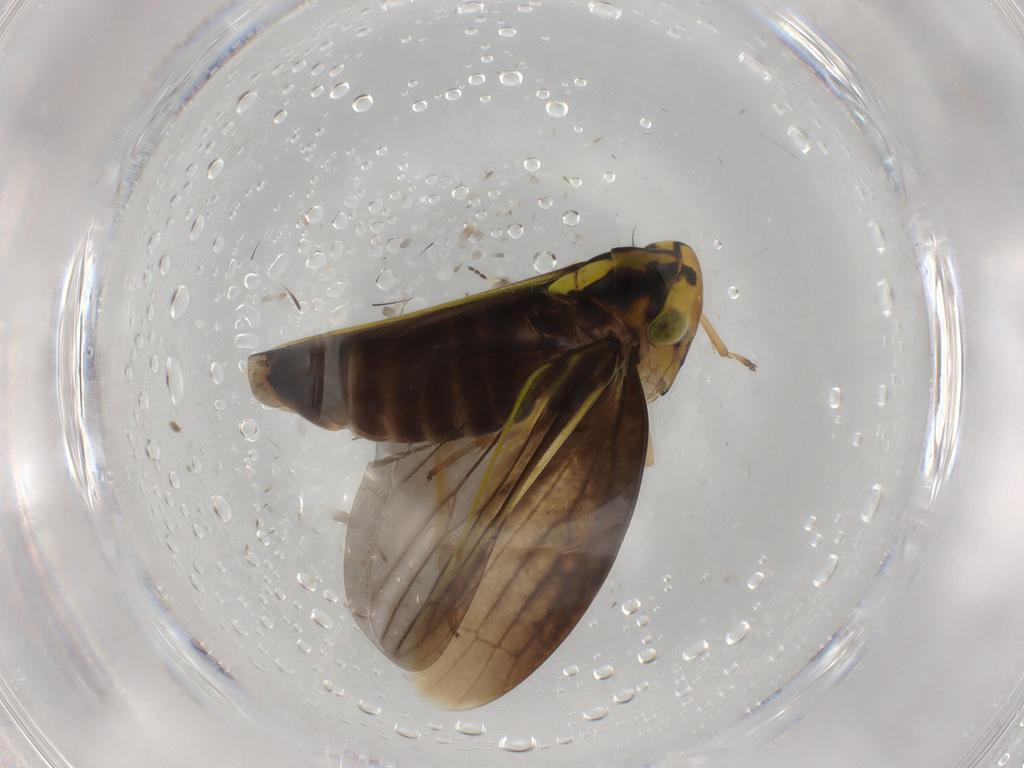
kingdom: Animalia
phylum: Arthropoda
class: Insecta
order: Hemiptera
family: Cicadellidae
